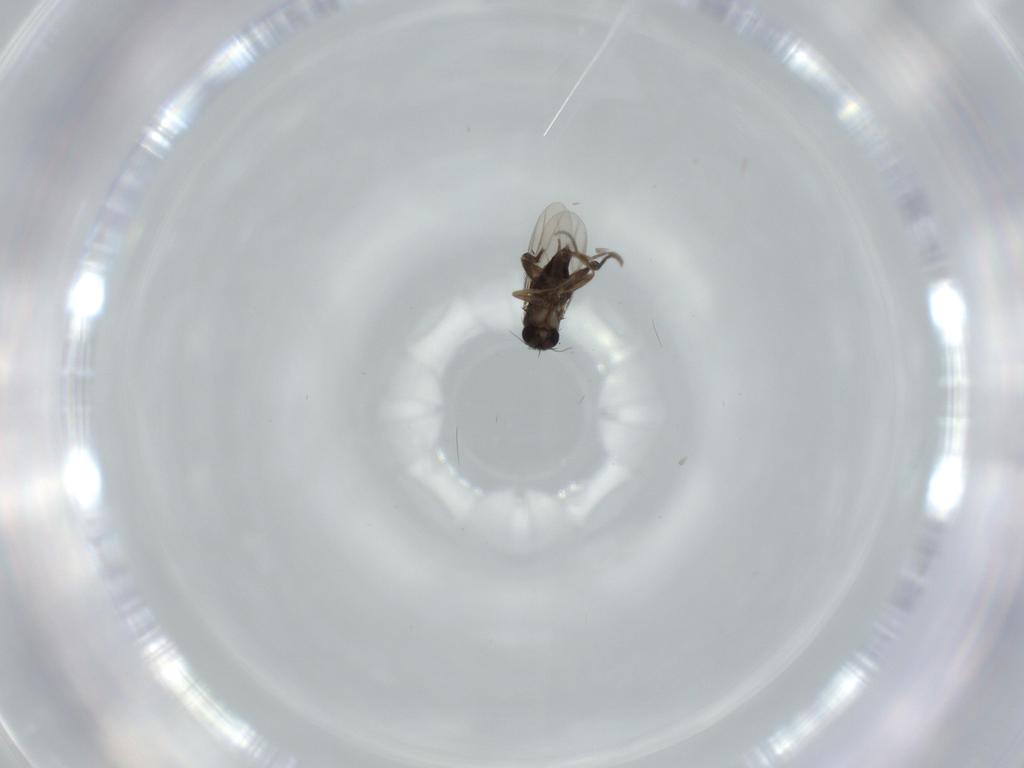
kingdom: Animalia
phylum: Arthropoda
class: Insecta
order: Diptera
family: Phoridae
